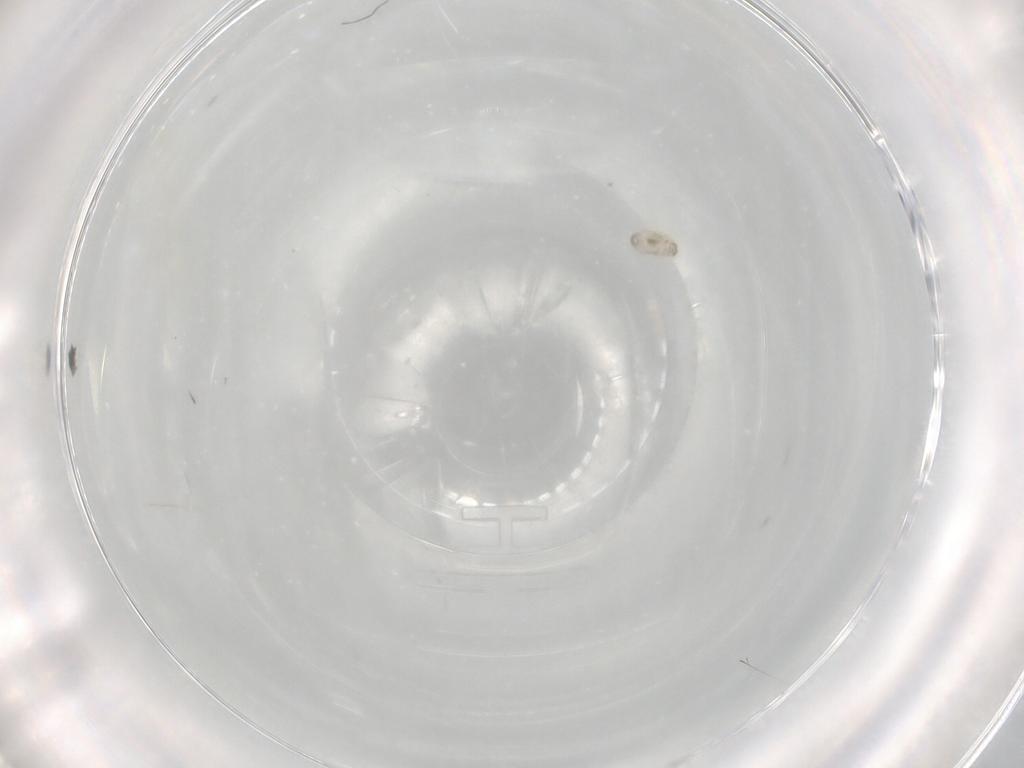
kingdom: Animalia
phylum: Arthropoda
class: Insecta
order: Coleoptera
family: Corylophidae
